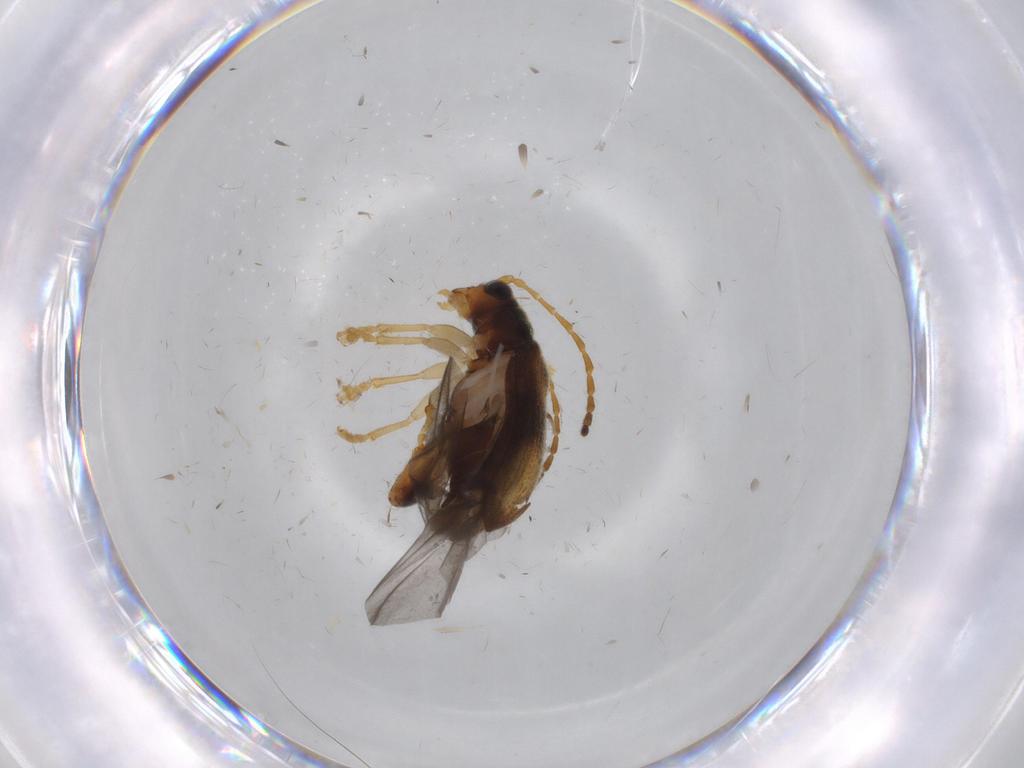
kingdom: Animalia
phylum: Arthropoda
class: Insecta
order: Coleoptera
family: Chrysomelidae
